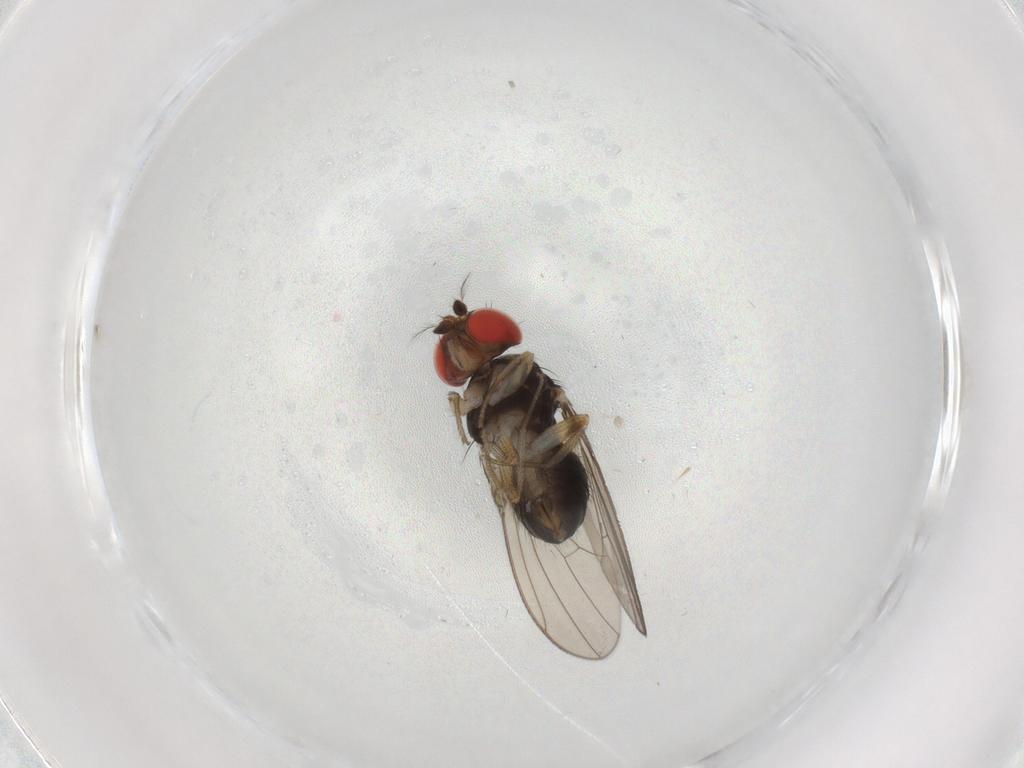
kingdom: Animalia
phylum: Arthropoda
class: Insecta
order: Diptera
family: Drosophilidae
